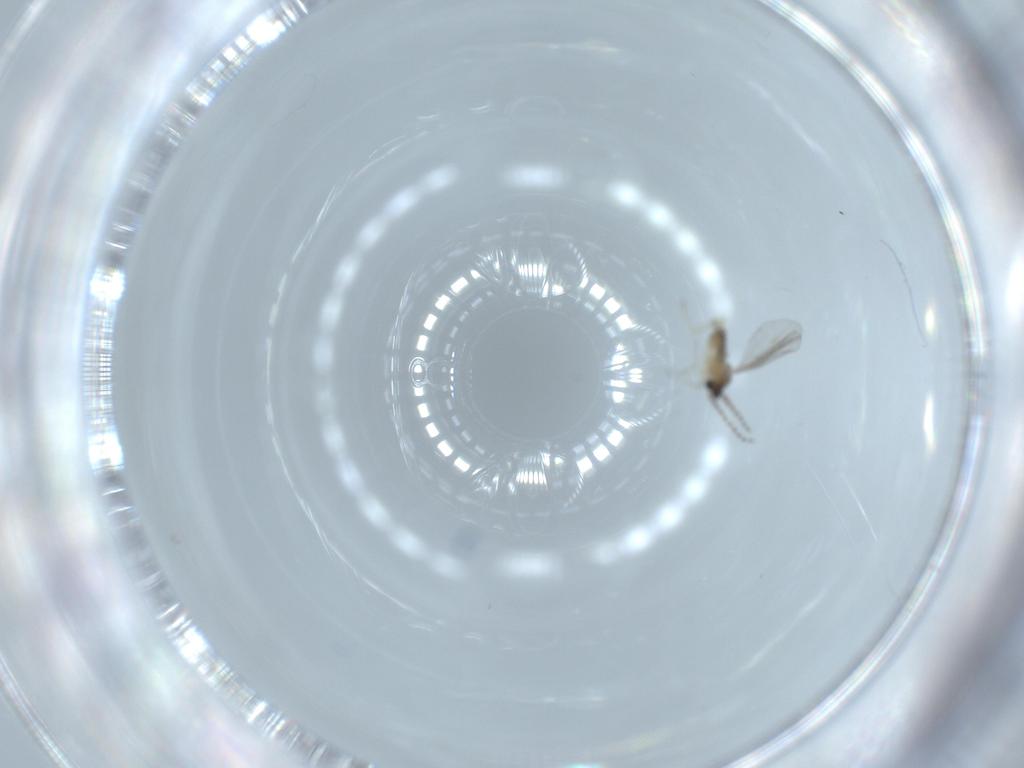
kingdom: Animalia
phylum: Arthropoda
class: Insecta
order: Diptera
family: Cecidomyiidae
